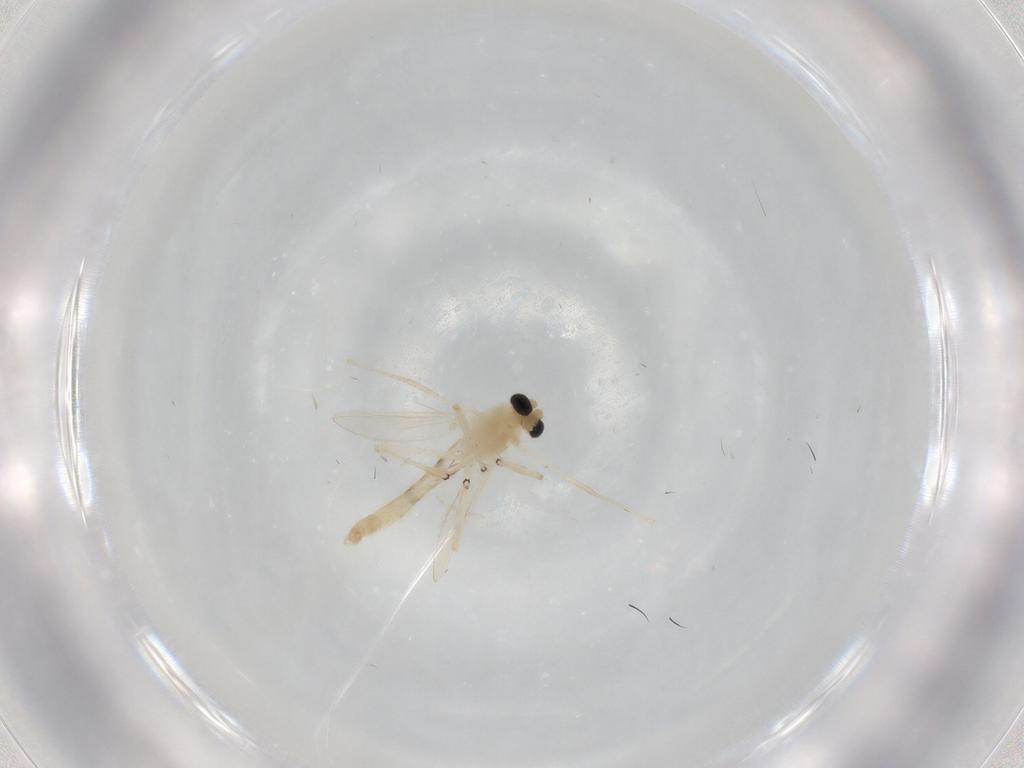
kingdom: Animalia
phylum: Arthropoda
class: Insecta
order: Diptera
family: Chironomidae
